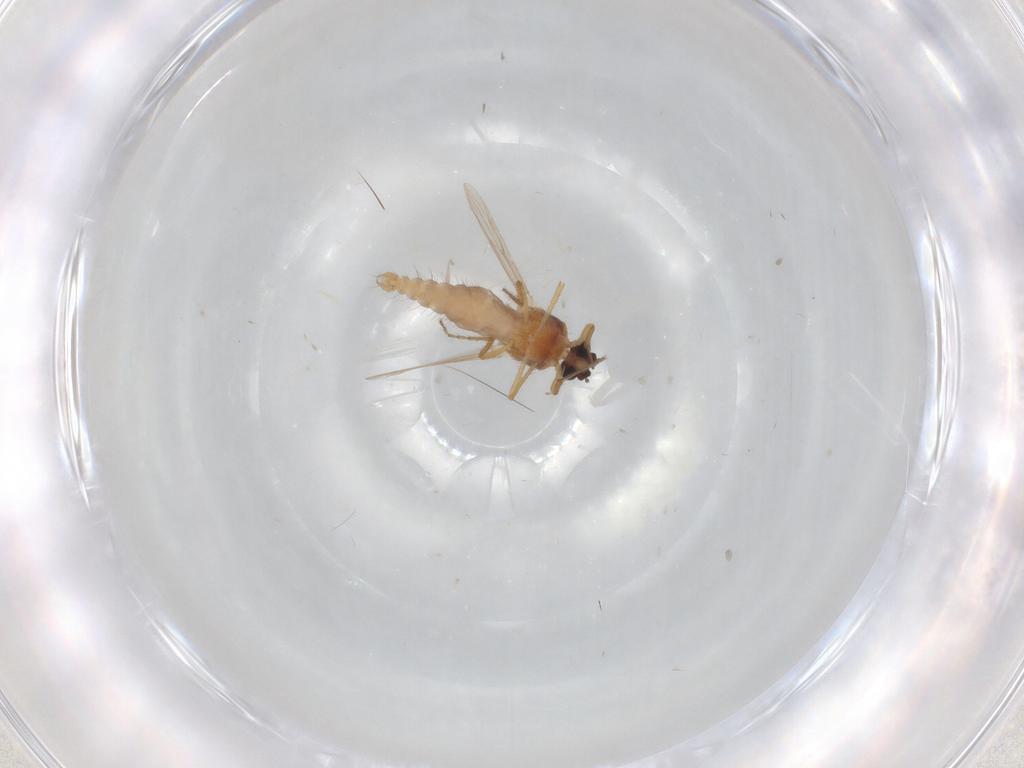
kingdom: Animalia
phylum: Arthropoda
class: Insecta
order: Diptera
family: Ceratopogonidae
